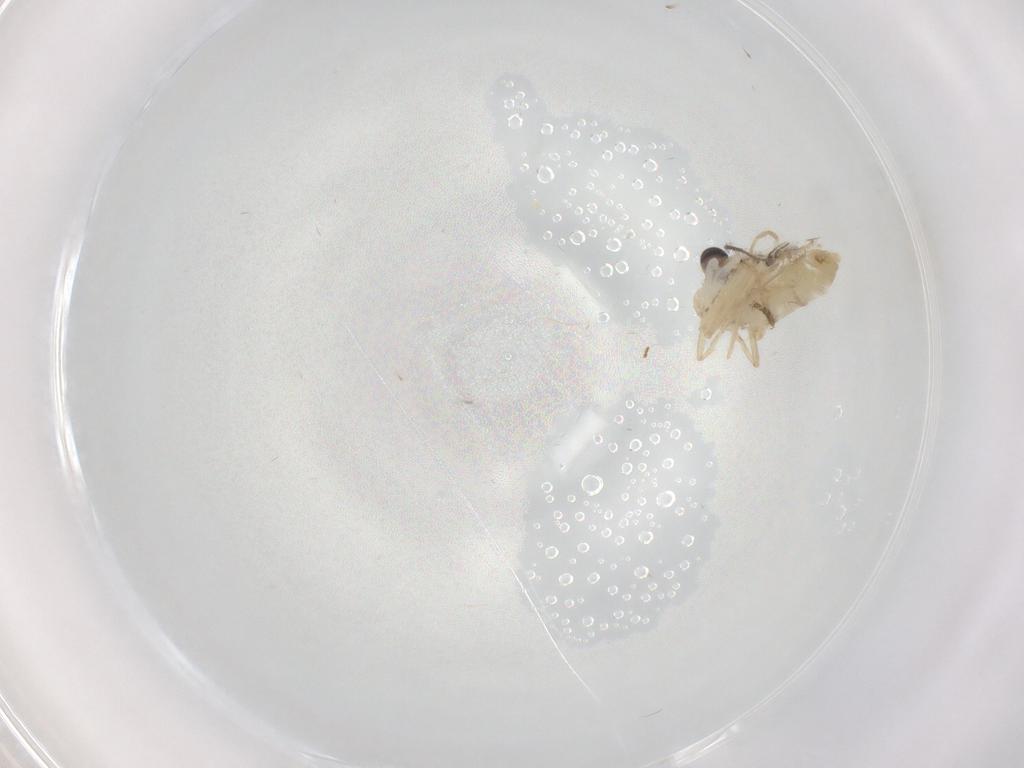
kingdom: Animalia
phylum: Arthropoda
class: Insecta
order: Diptera
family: Chironomidae
